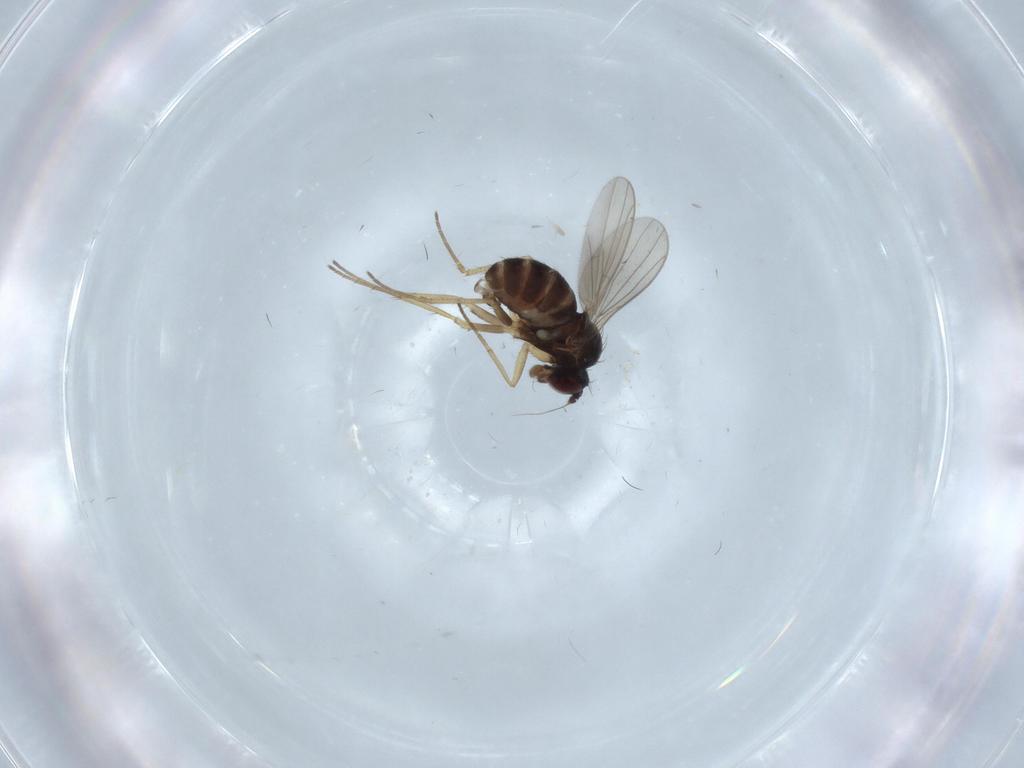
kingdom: Animalia
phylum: Arthropoda
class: Insecta
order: Diptera
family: Dolichopodidae
